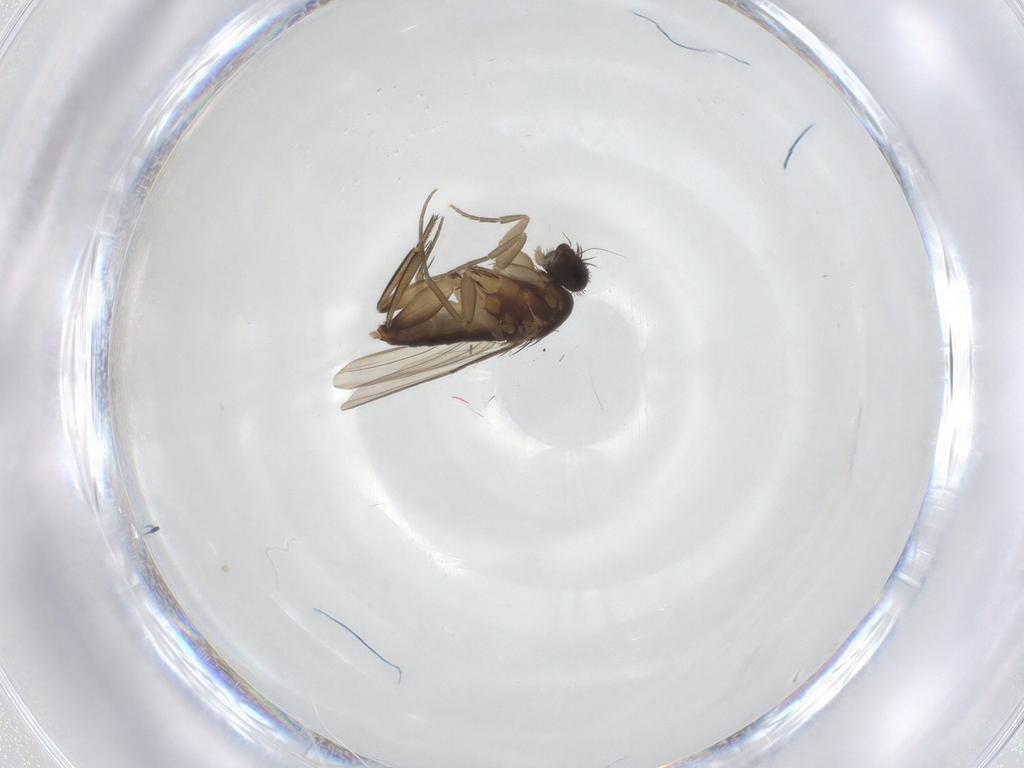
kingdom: Animalia
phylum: Arthropoda
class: Insecta
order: Diptera
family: Phoridae
